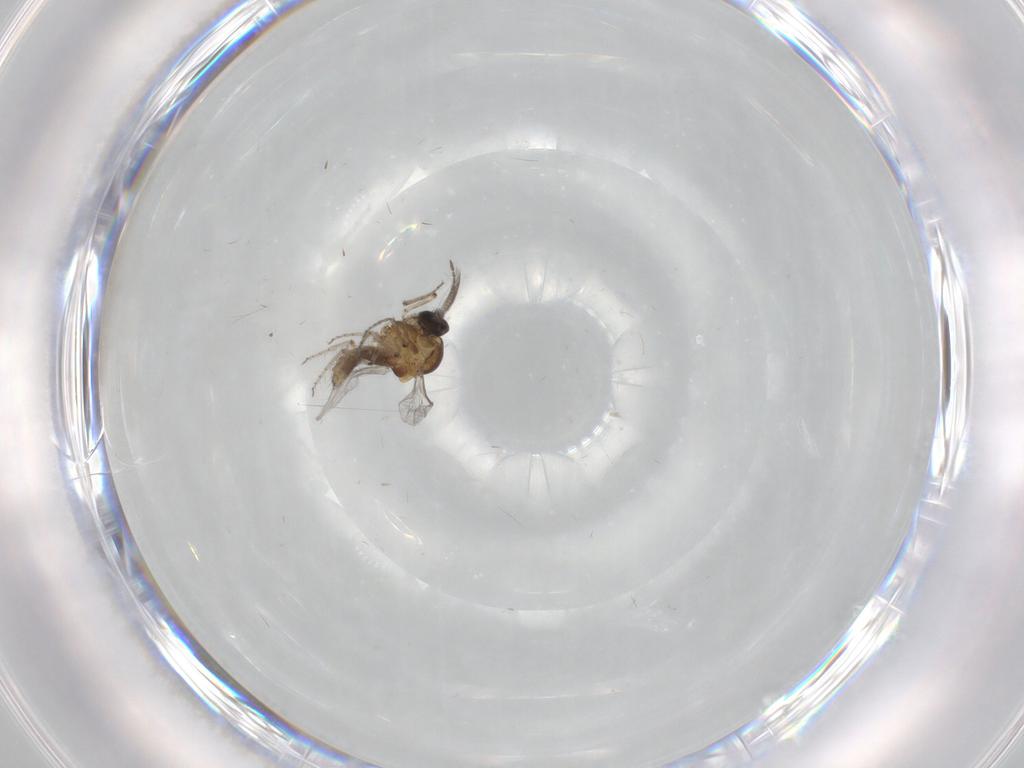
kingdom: Animalia
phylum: Arthropoda
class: Insecta
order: Diptera
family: Ceratopogonidae
